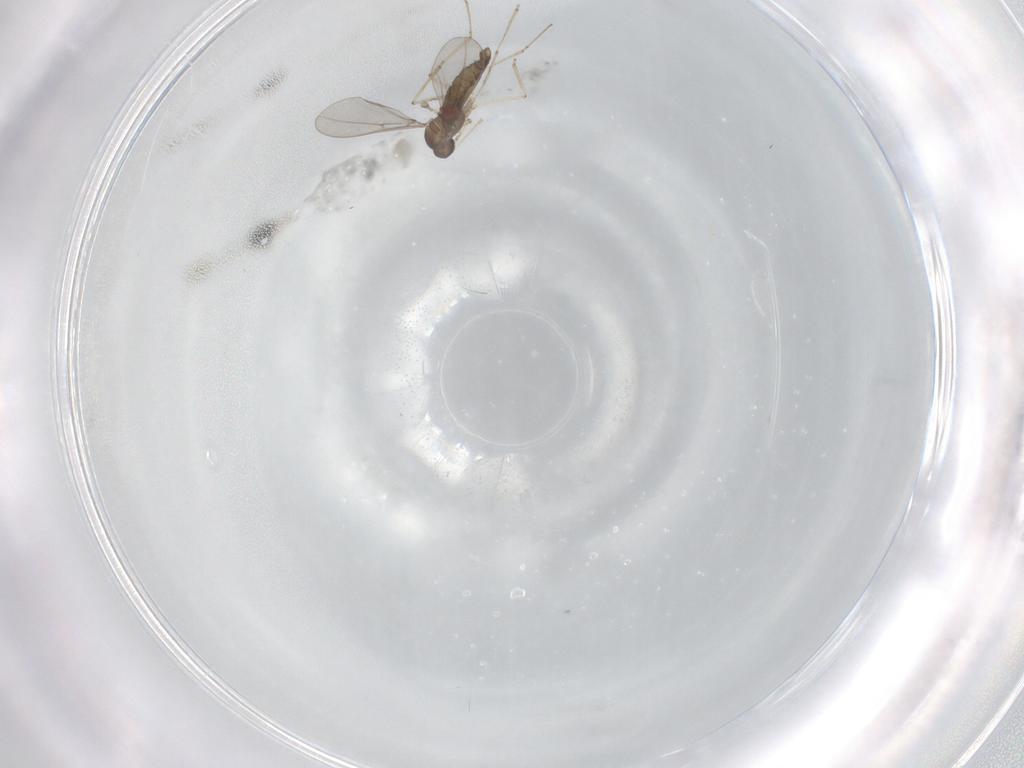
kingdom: Animalia
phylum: Arthropoda
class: Insecta
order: Diptera
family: Cecidomyiidae
